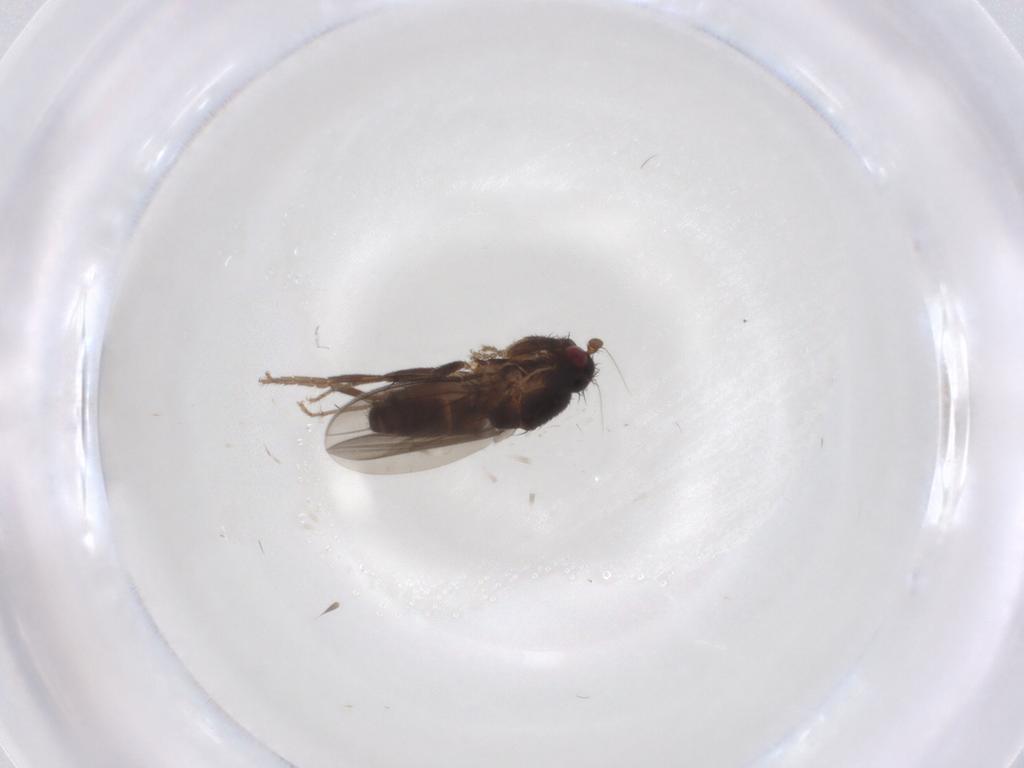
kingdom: Animalia
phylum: Arthropoda
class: Insecta
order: Diptera
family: Sphaeroceridae
